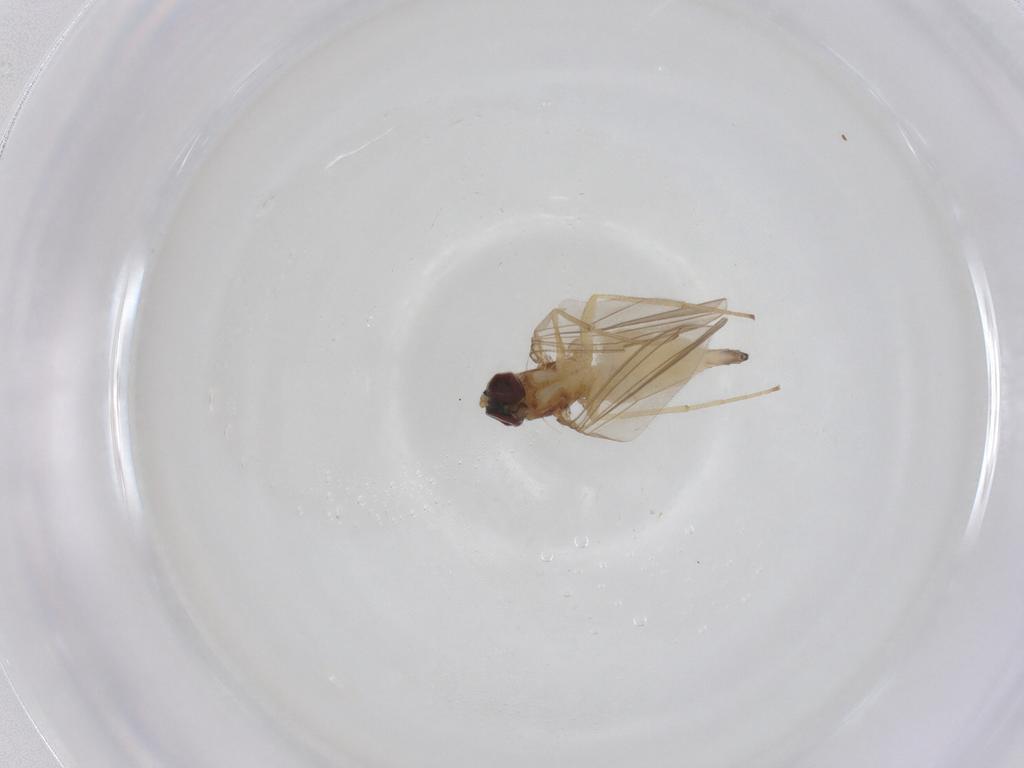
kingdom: Animalia
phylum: Arthropoda
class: Insecta
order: Diptera
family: Dolichopodidae
